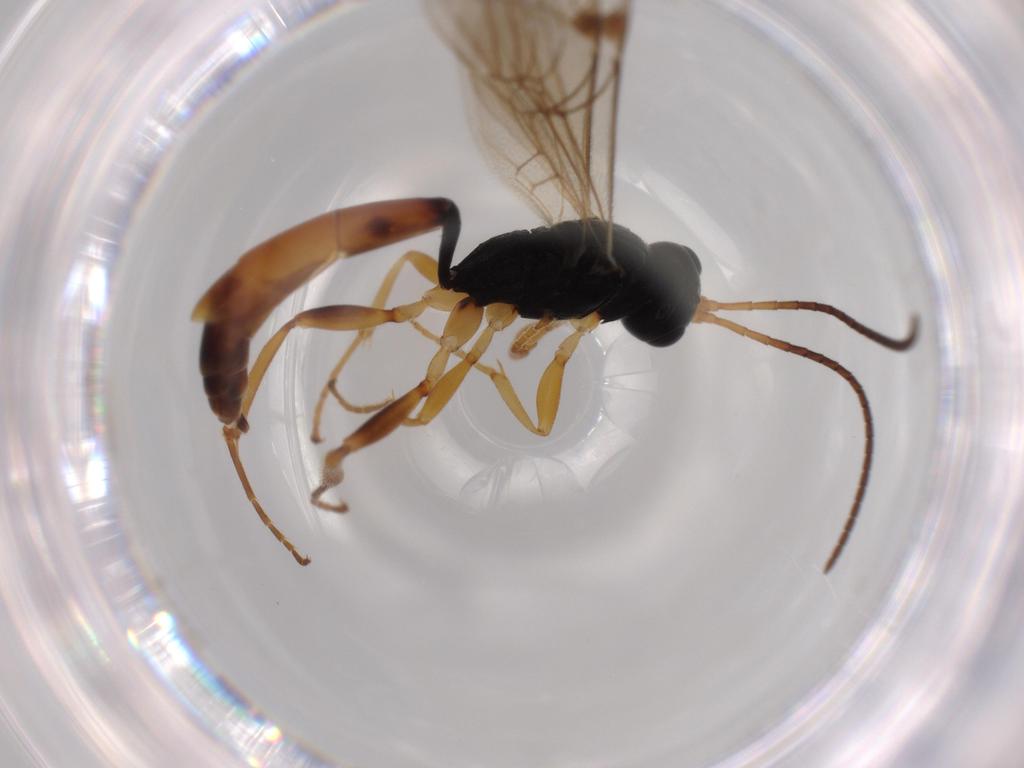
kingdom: Animalia
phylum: Arthropoda
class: Insecta
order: Hymenoptera
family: Ichneumonidae
